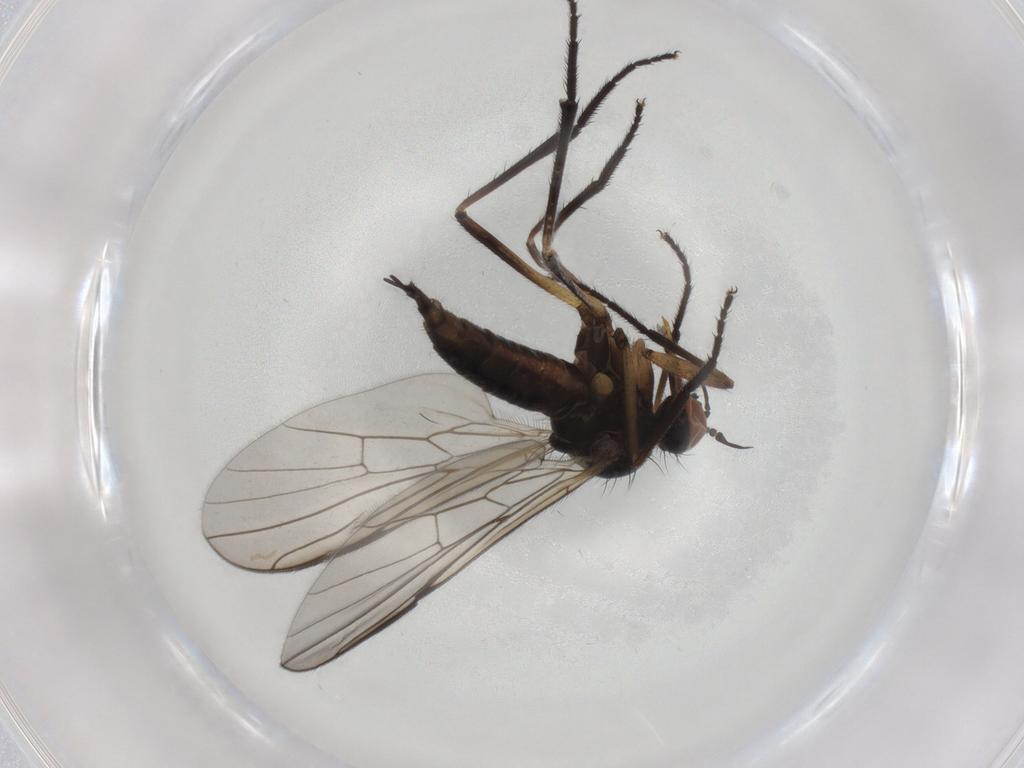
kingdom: Animalia
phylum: Arthropoda
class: Insecta
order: Diptera
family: Empididae
